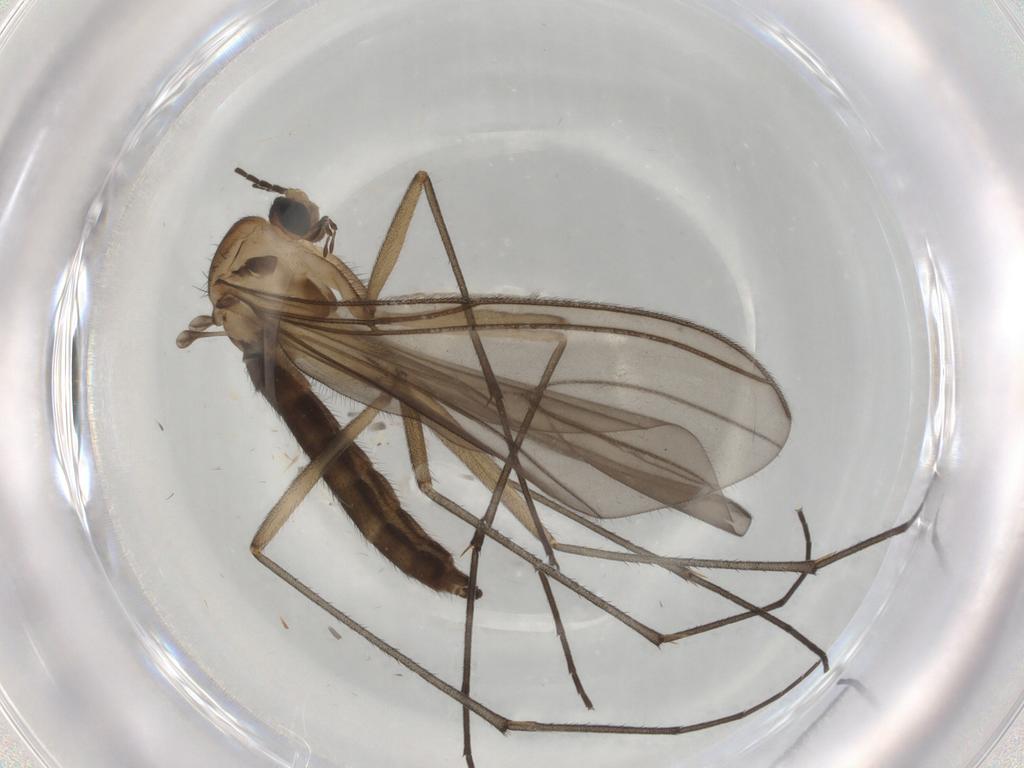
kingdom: Animalia
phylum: Arthropoda
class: Insecta
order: Diptera
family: Sciaridae
